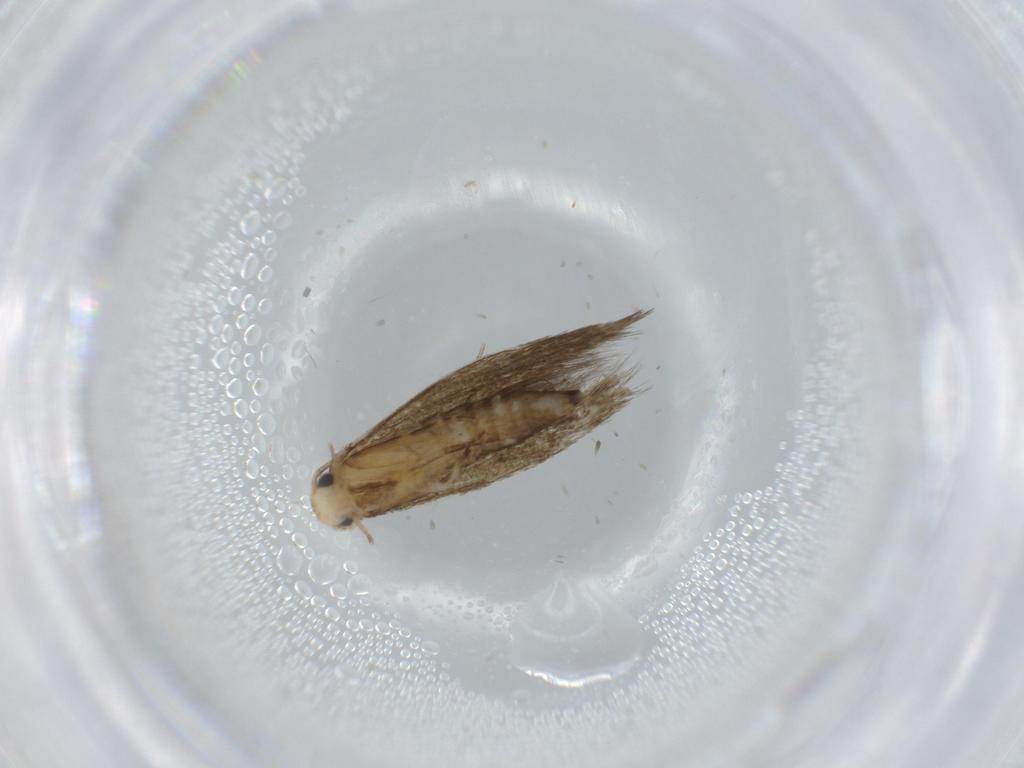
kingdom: Animalia
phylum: Arthropoda
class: Insecta
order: Lepidoptera
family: Tineidae
